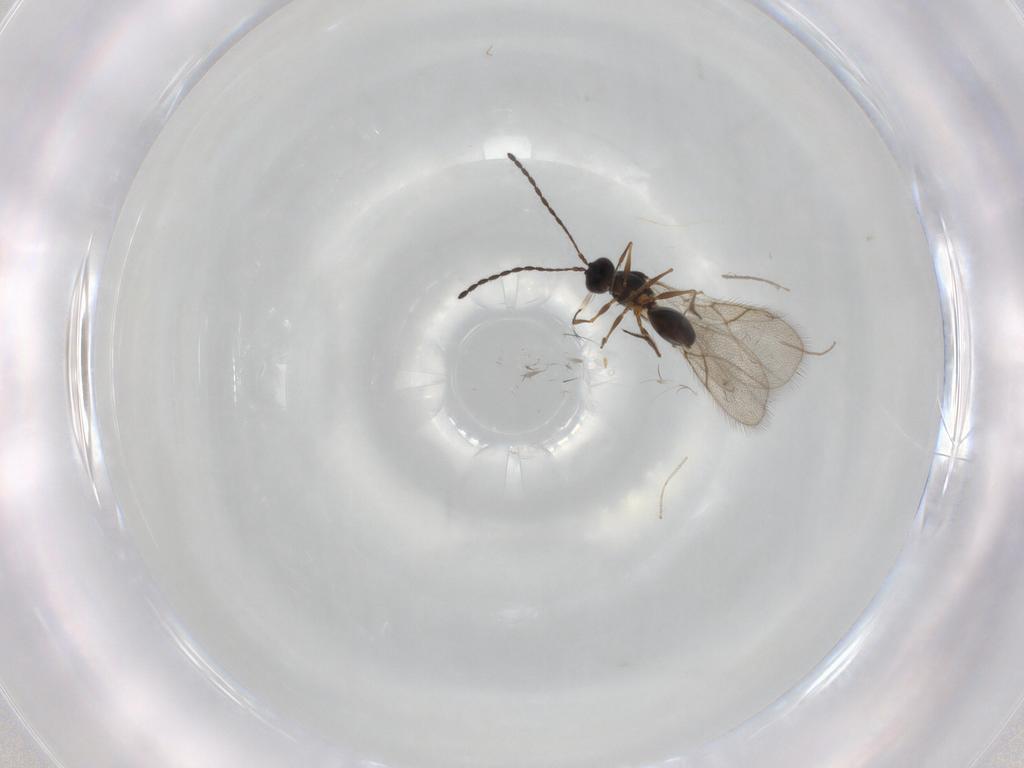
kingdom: Animalia
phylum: Arthropoda
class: Insecta
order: Hymenoptera
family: Figitidae
